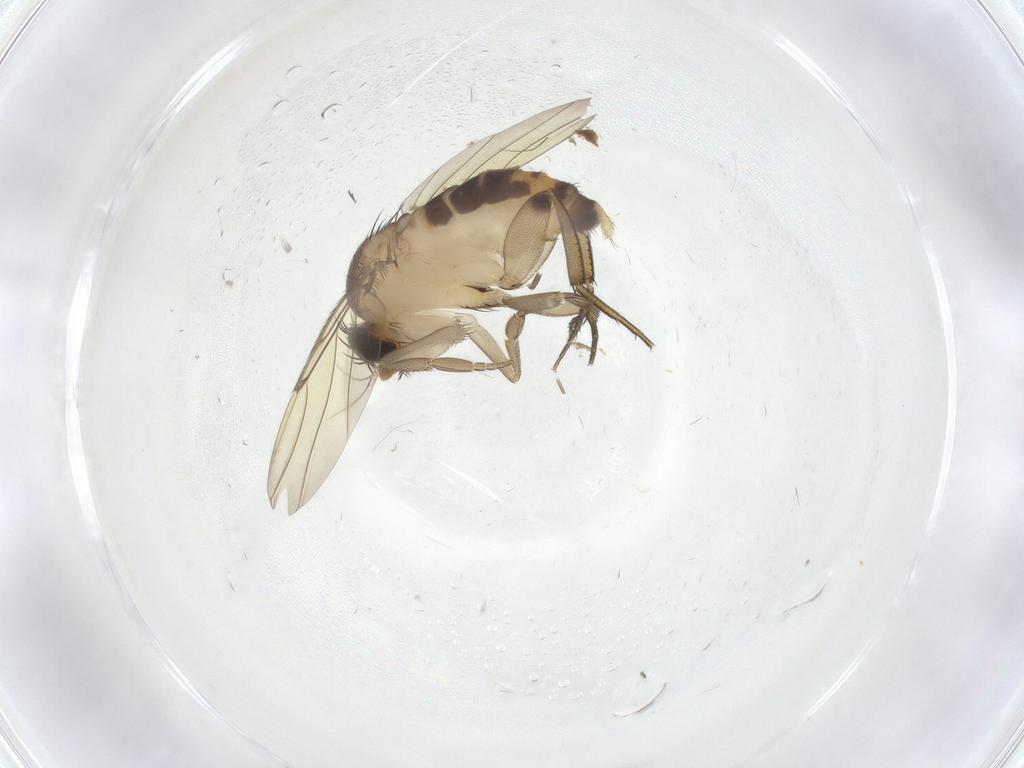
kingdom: Animalia
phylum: Arthropoda
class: Insecta
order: Diptera
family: Phoridae
